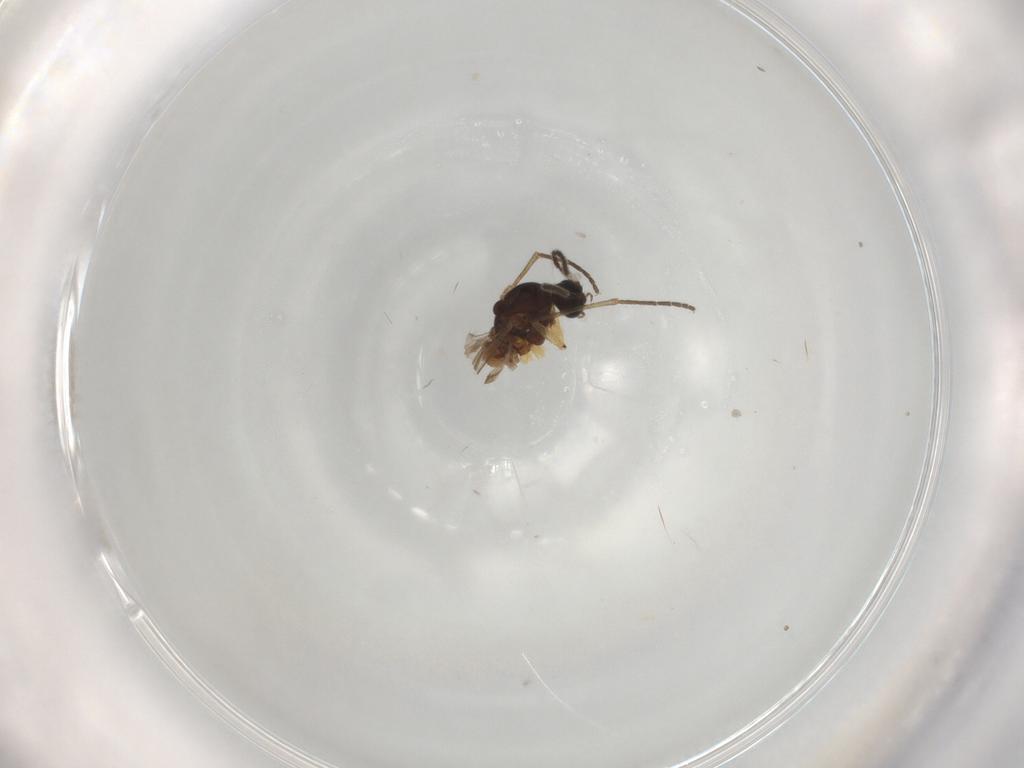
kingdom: Animalia
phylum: Arthropoda
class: Insecta
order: Diptera
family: Sciaridae
